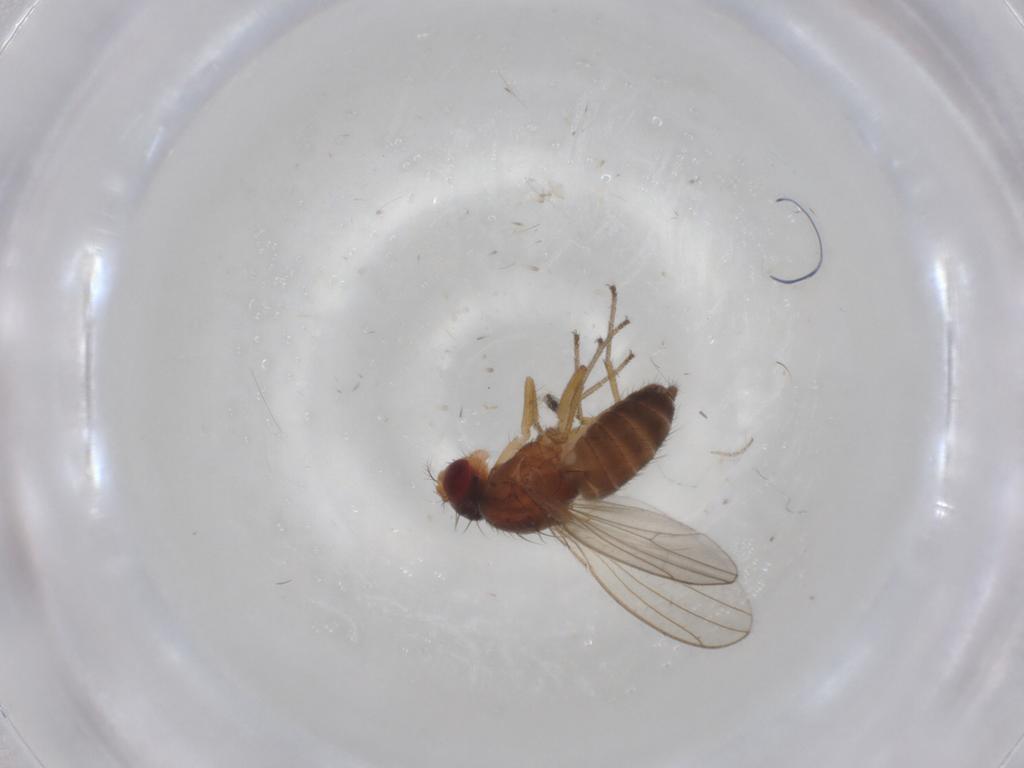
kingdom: Animalia
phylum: Arthropoda
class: Insecta
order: Diptera
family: Drosophilidae
